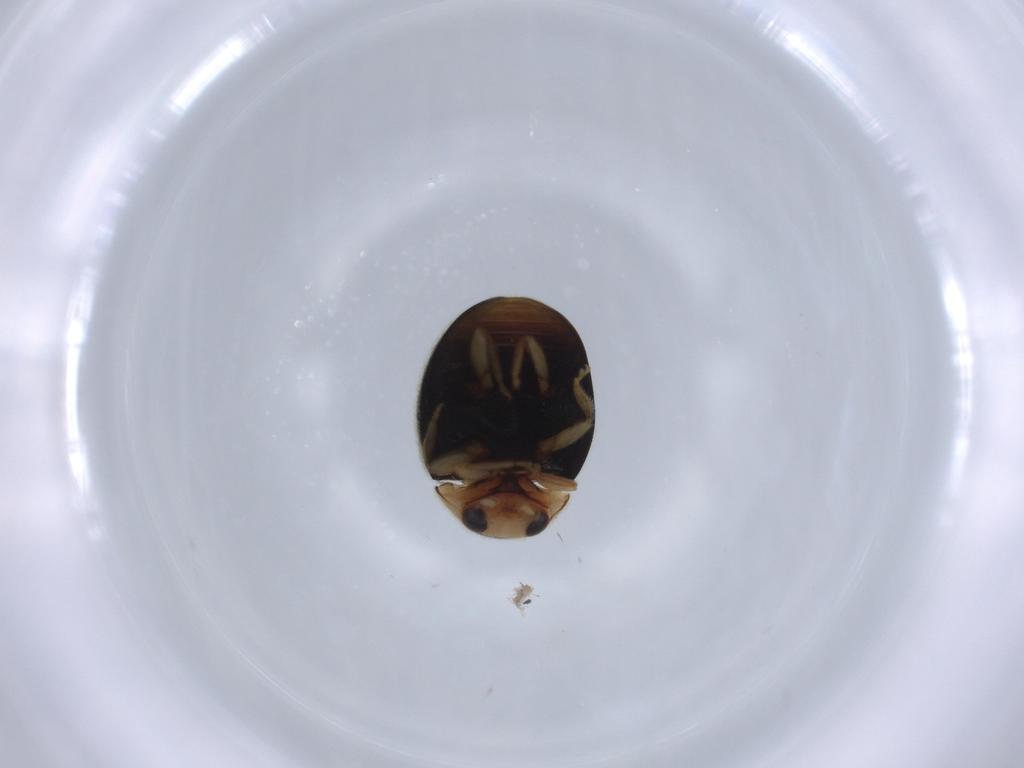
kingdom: Animalia
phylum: Arthropoda
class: Insecta
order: Coleoptera
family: Coccinellidae
